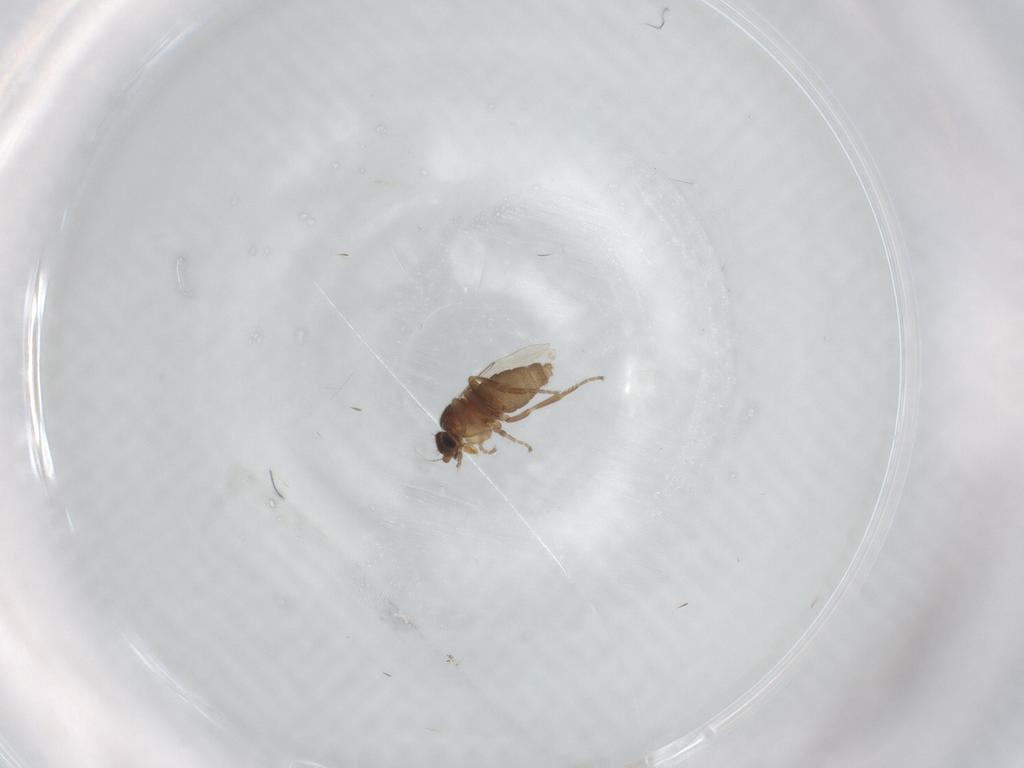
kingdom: Animalia
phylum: Arthropoda
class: Insecta
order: Diptera
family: Phoridae
